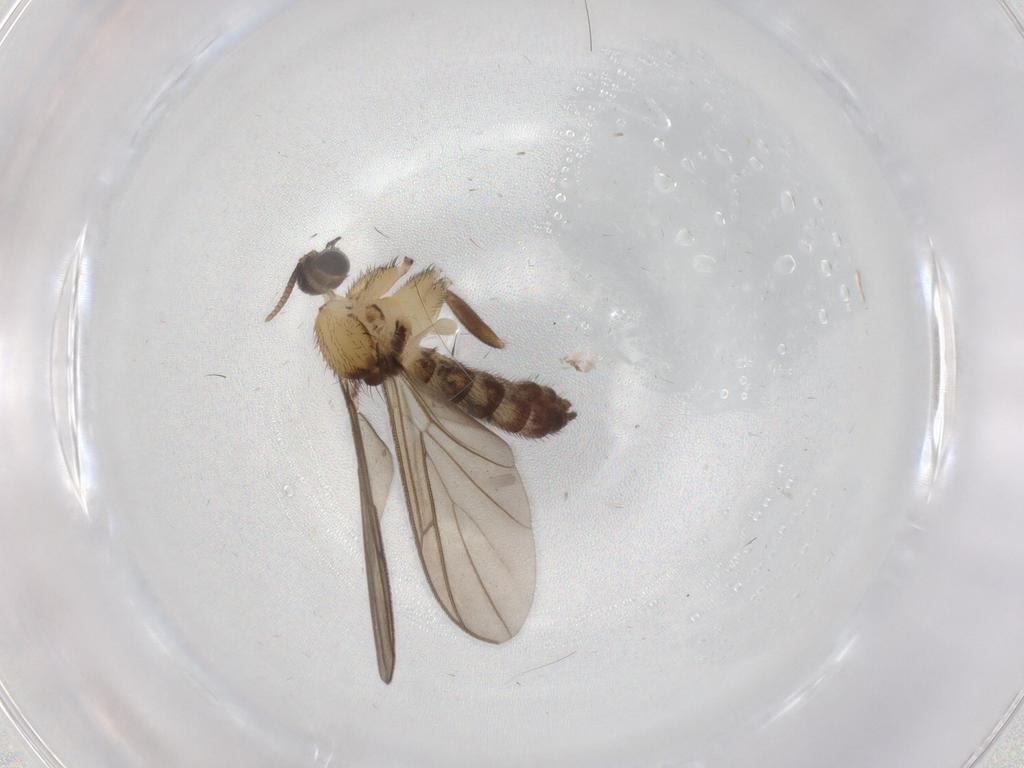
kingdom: Animalia
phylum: Arthropoda
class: Insecta
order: Diptera
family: Keroplatidae
